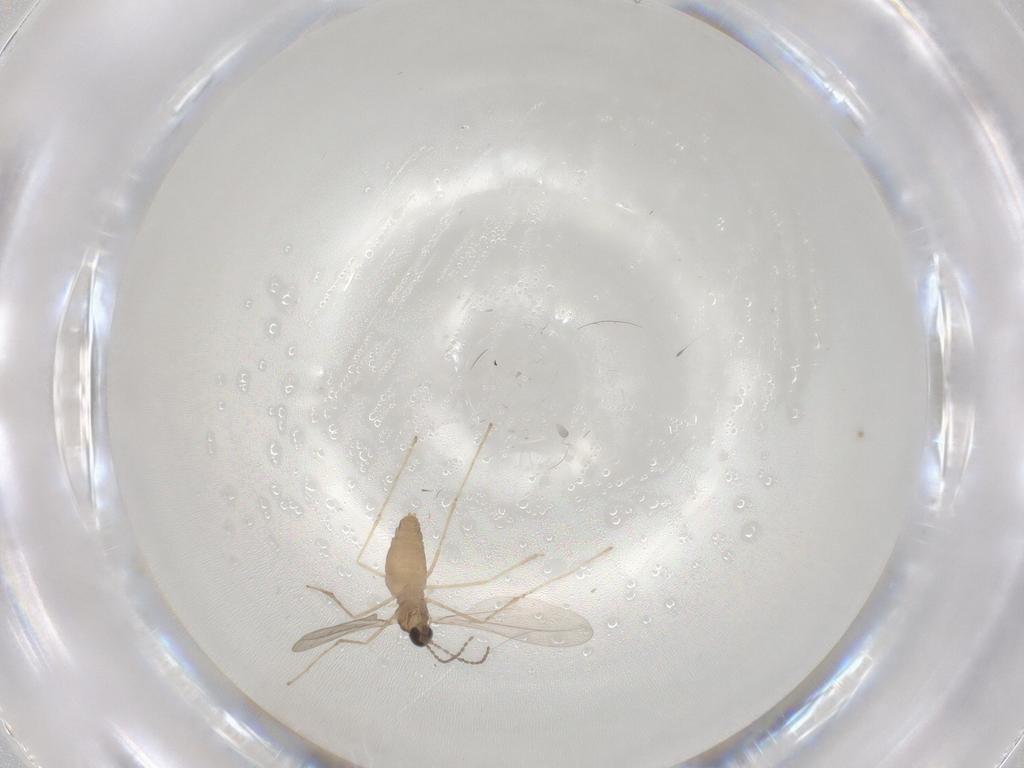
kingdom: Animalia
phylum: Arthropoda
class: Insecta
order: Diptera
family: Cecidomyiidae
